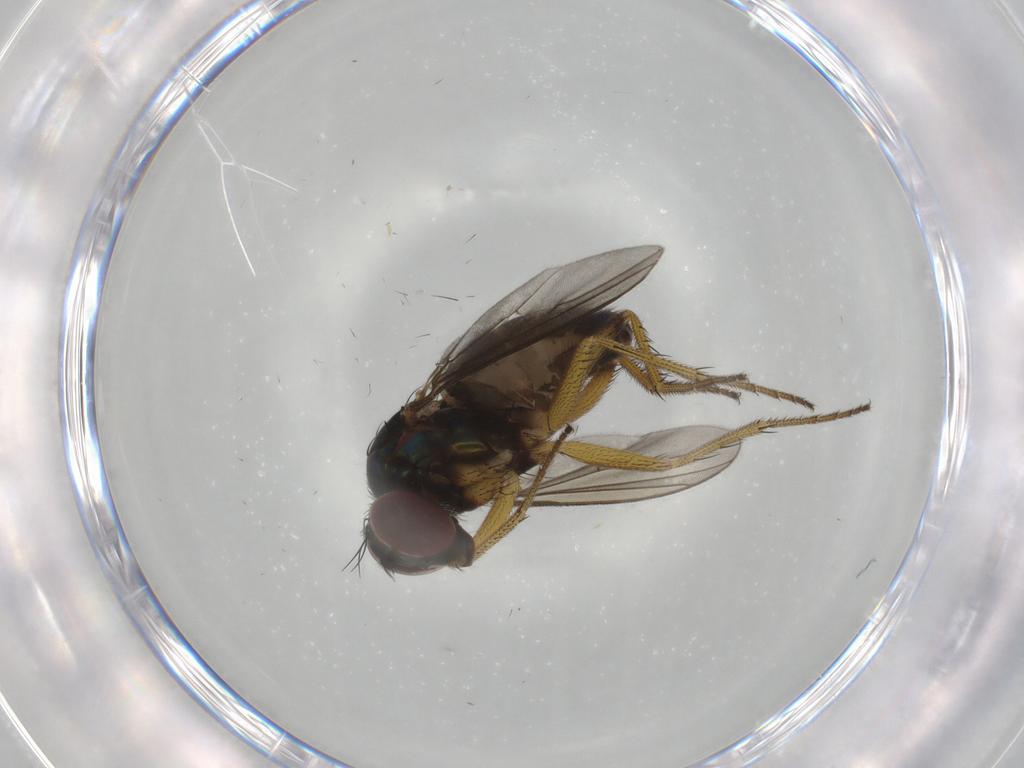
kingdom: Animalia
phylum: Arthropoda
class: Insecta
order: Diptera
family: Dolichopodidae
